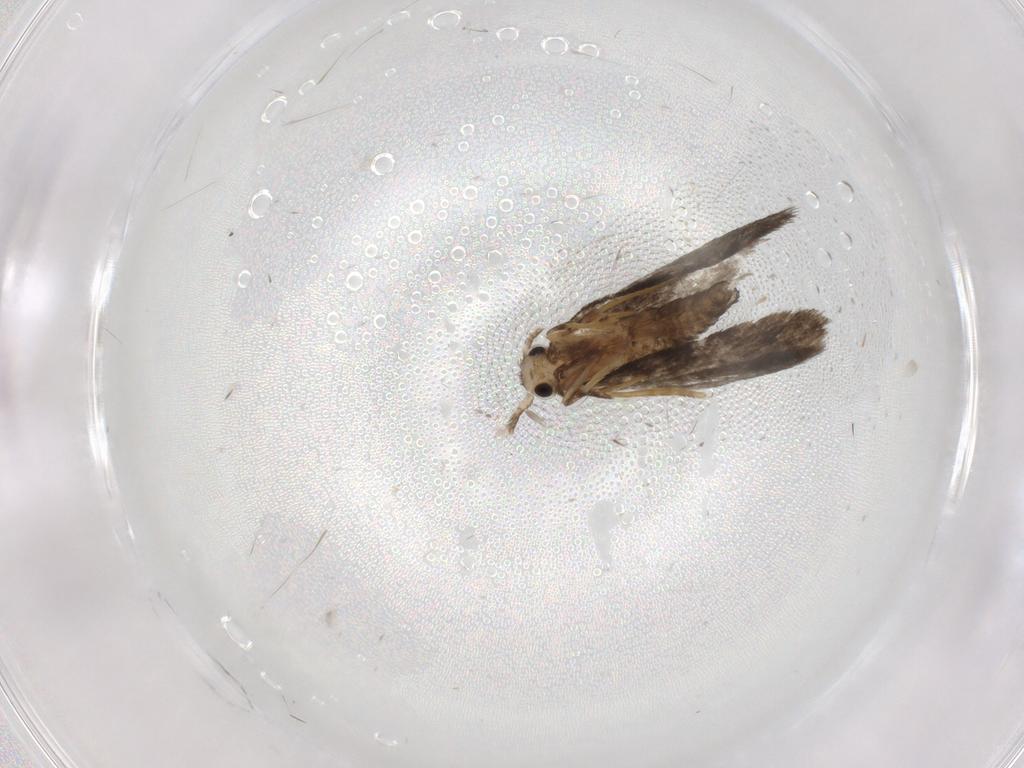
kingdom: Animalia
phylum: Arthropoda
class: Insecta
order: Lepidoptera
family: Psychidae
